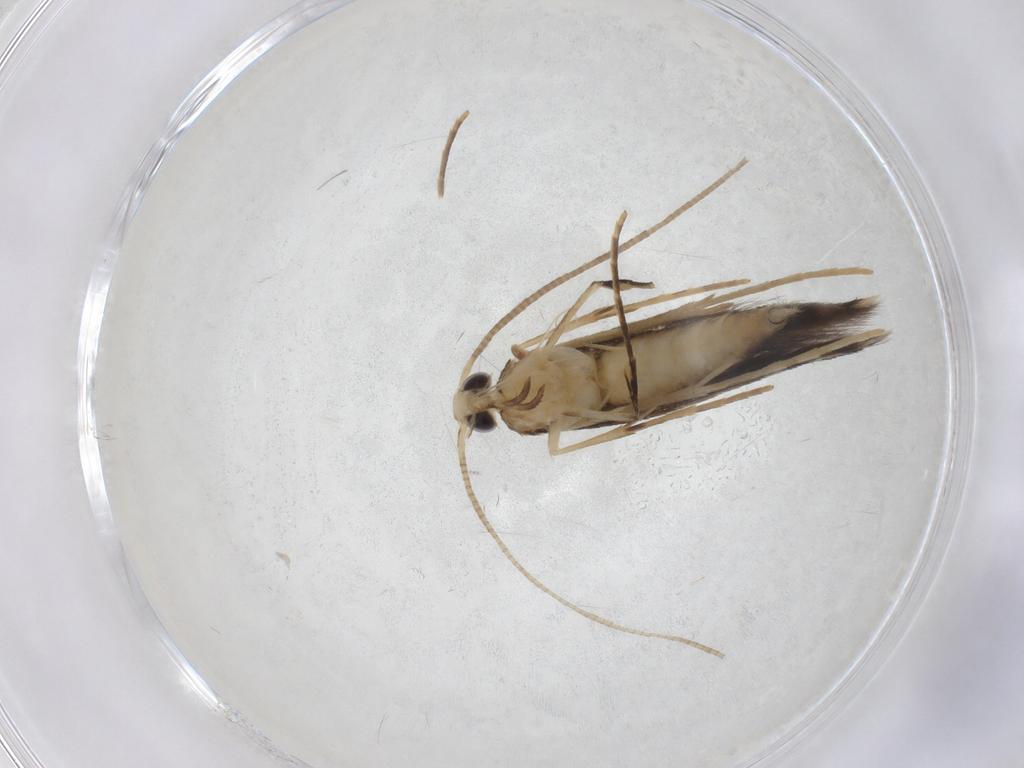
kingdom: Animalia
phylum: Arthropoda
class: Insecta
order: Lepidoptera
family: Gracillariidae
